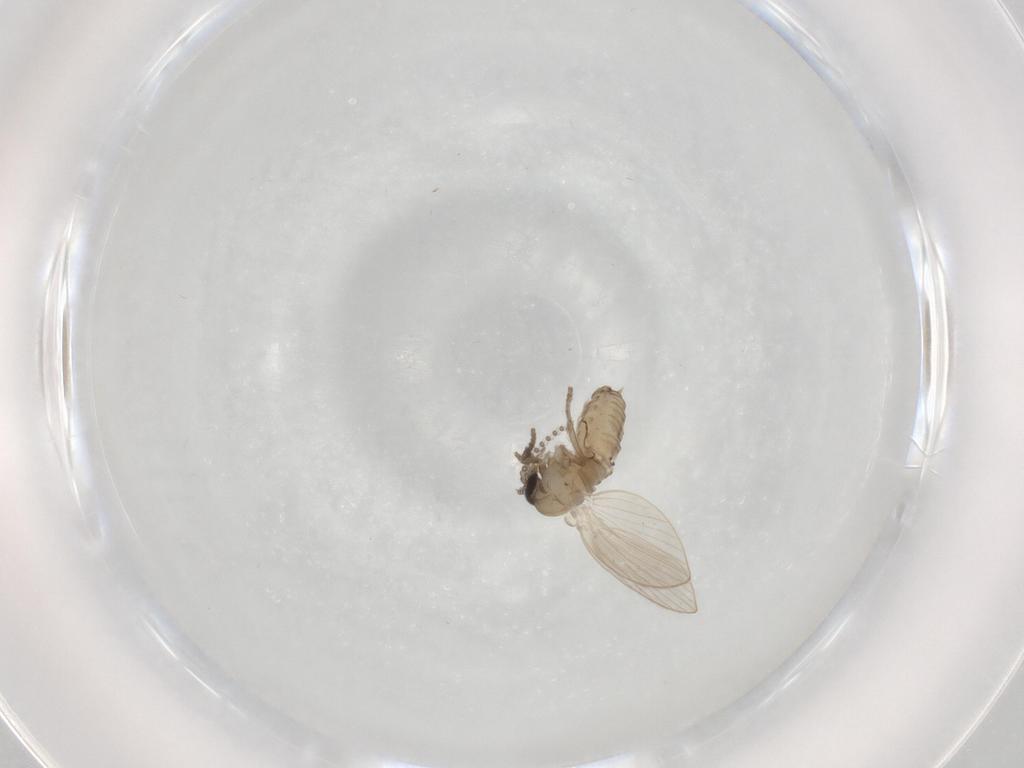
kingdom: Animalia
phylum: Arthropoda
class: Insecta
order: Diptera
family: Psychodidae
